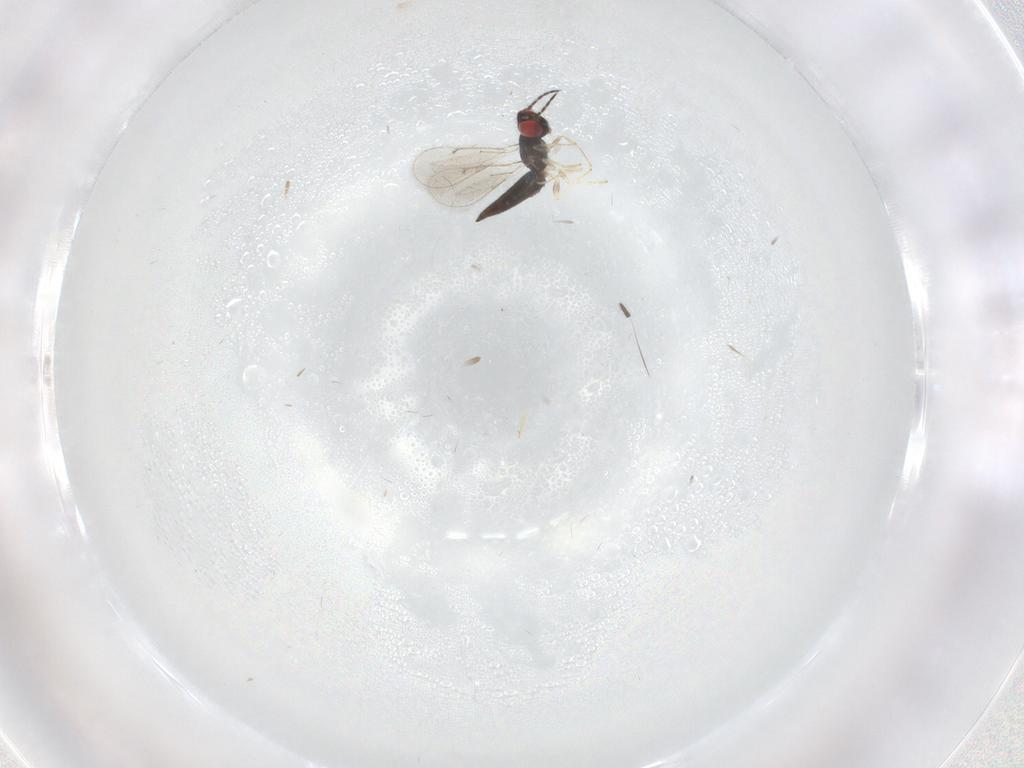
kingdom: Animalia
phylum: Arthropoda
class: Insecta
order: Hymenoptera
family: Eulophidae
